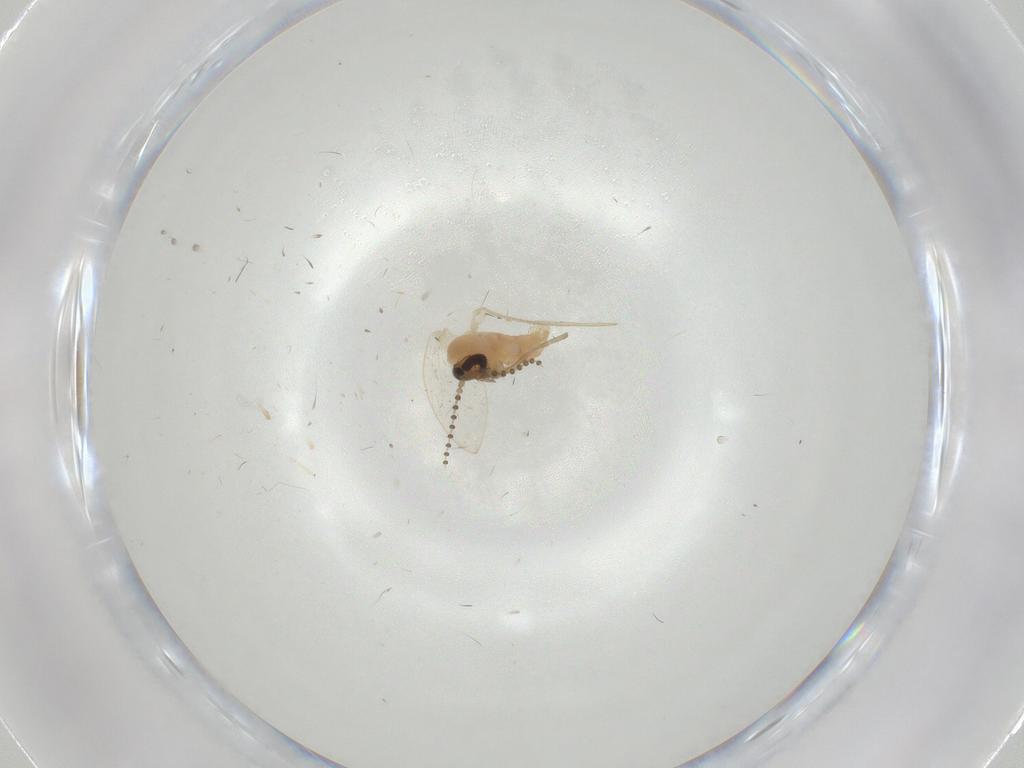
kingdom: Animalia
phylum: Arthropoda
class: Insecta
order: Diptera
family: Psychodidae
